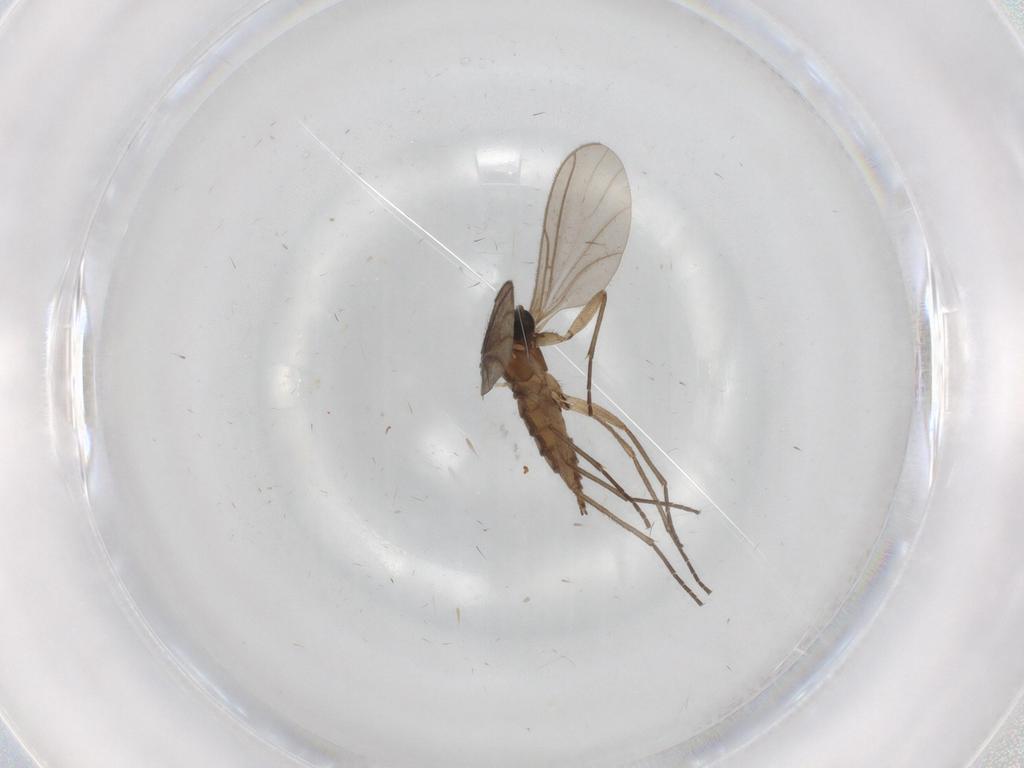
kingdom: Animalia
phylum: Arthropoda
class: Insecta
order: Diptera
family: Sciaridae
